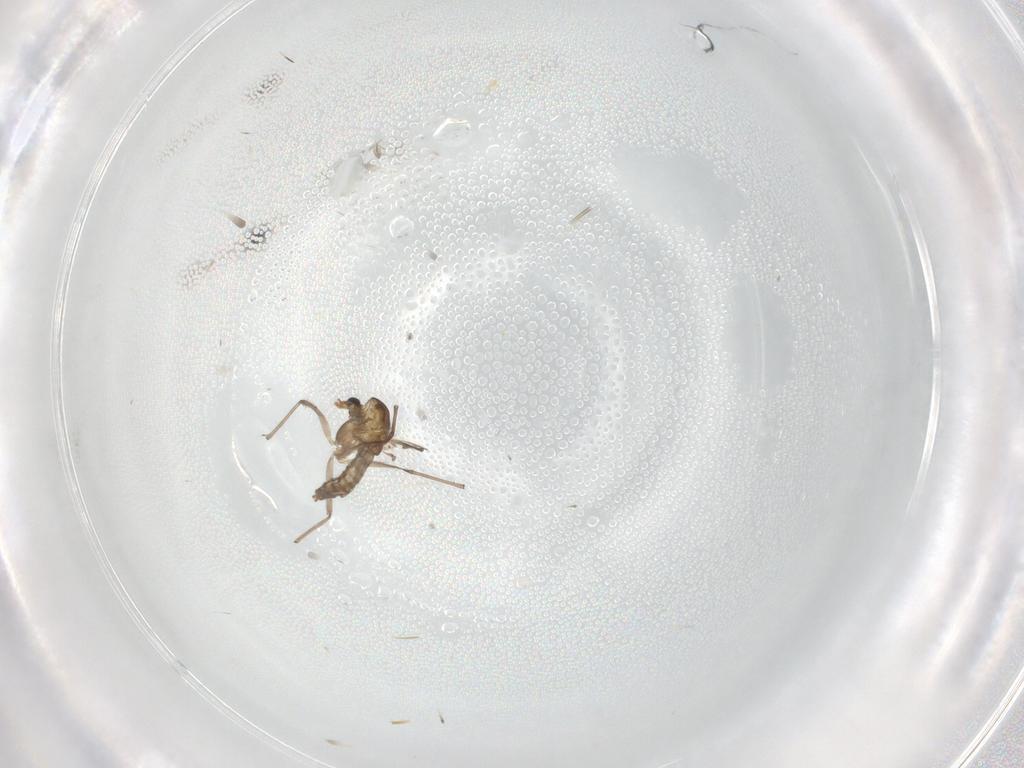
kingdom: Animalia
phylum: Arthropoda
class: Insecta
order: Diptera
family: Chironomidae
